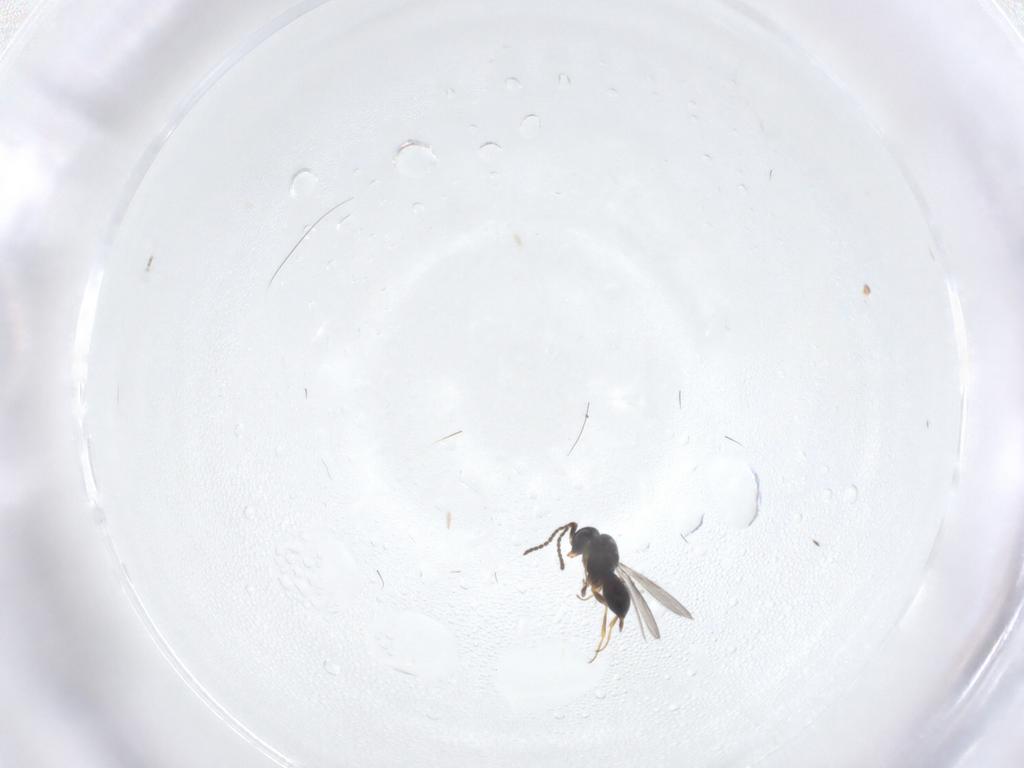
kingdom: Animalia
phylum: Arthropoda
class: Insecta
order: Hymenoptera
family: Scelionidae
